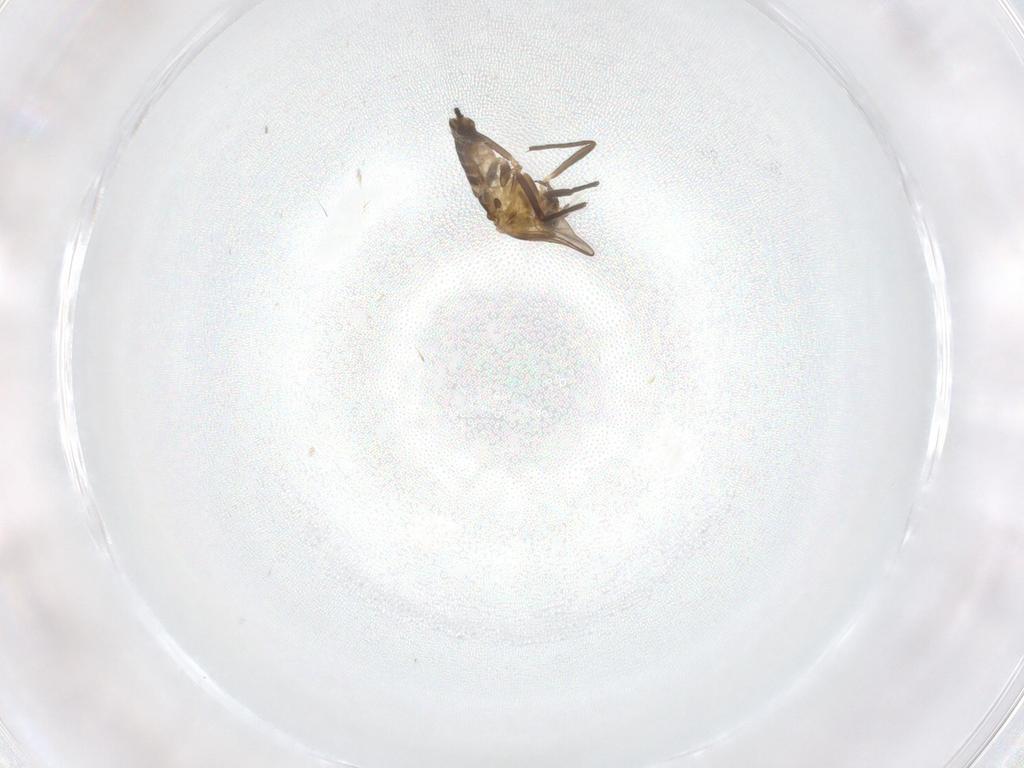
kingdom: Animalia
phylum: Arthropoda
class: Insecta
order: Diptera
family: Chironomidae
